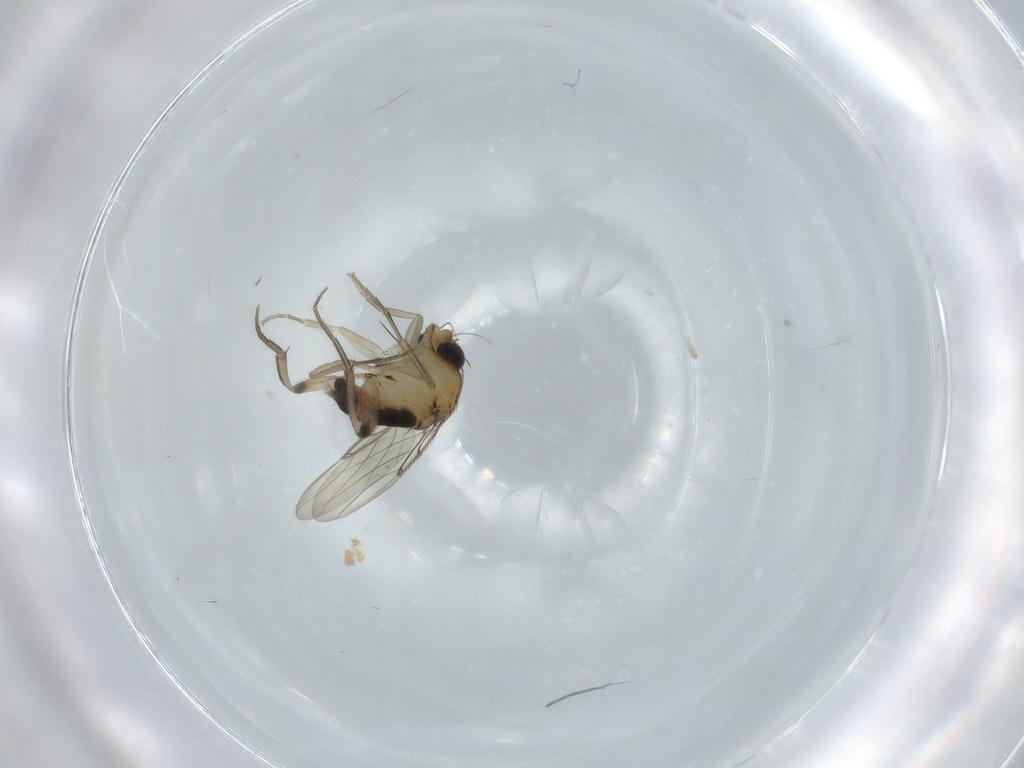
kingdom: Animalia
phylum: Arthropoda
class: Insecta
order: Diptera
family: Phoridae
